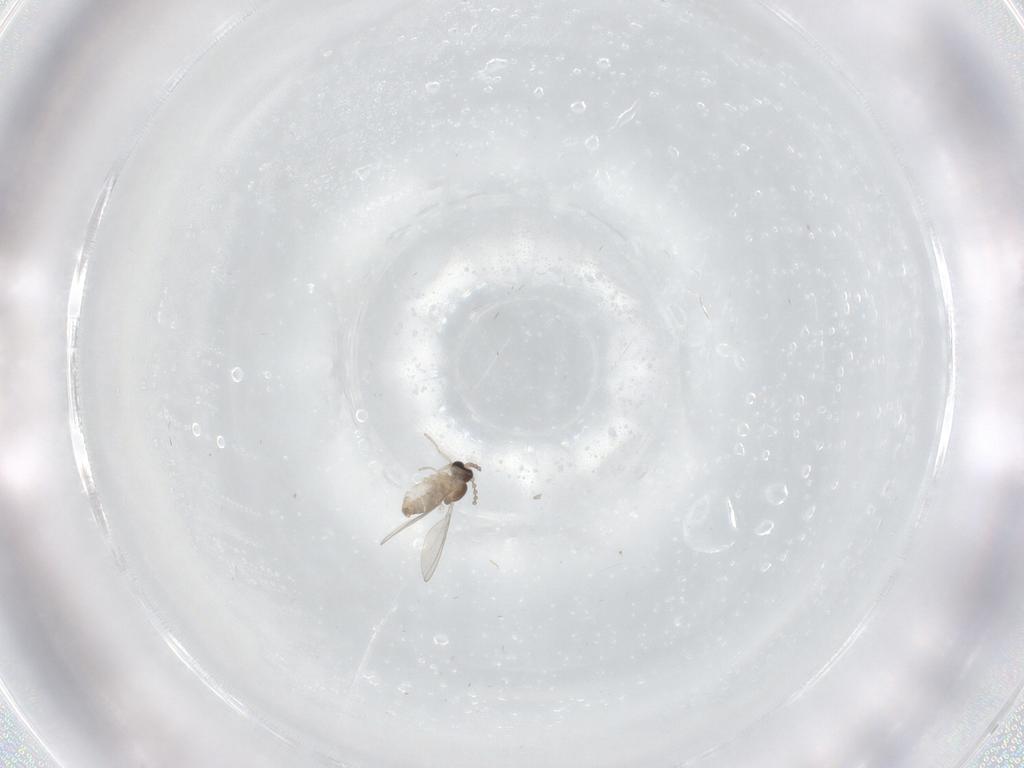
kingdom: Animalia
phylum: Arthropoda
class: Insecta
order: Diptera
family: Cecidomyiidae
